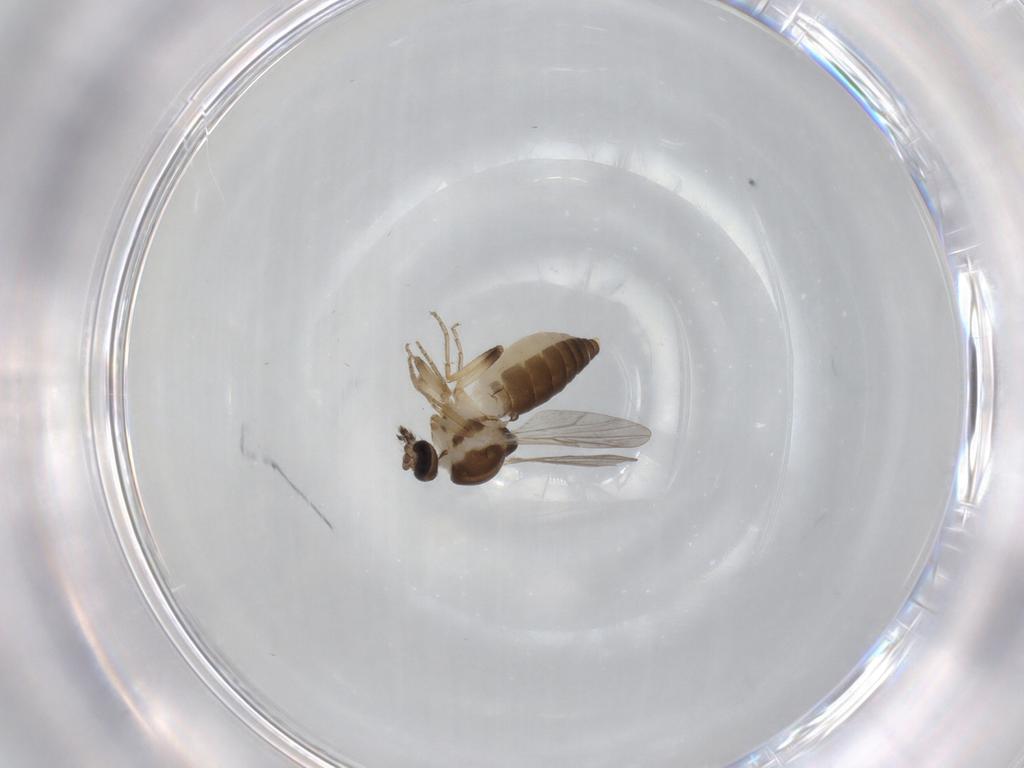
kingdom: Animalia
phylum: Arthropoda
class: Insecta
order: Diptera
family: Ceratopogonidae
